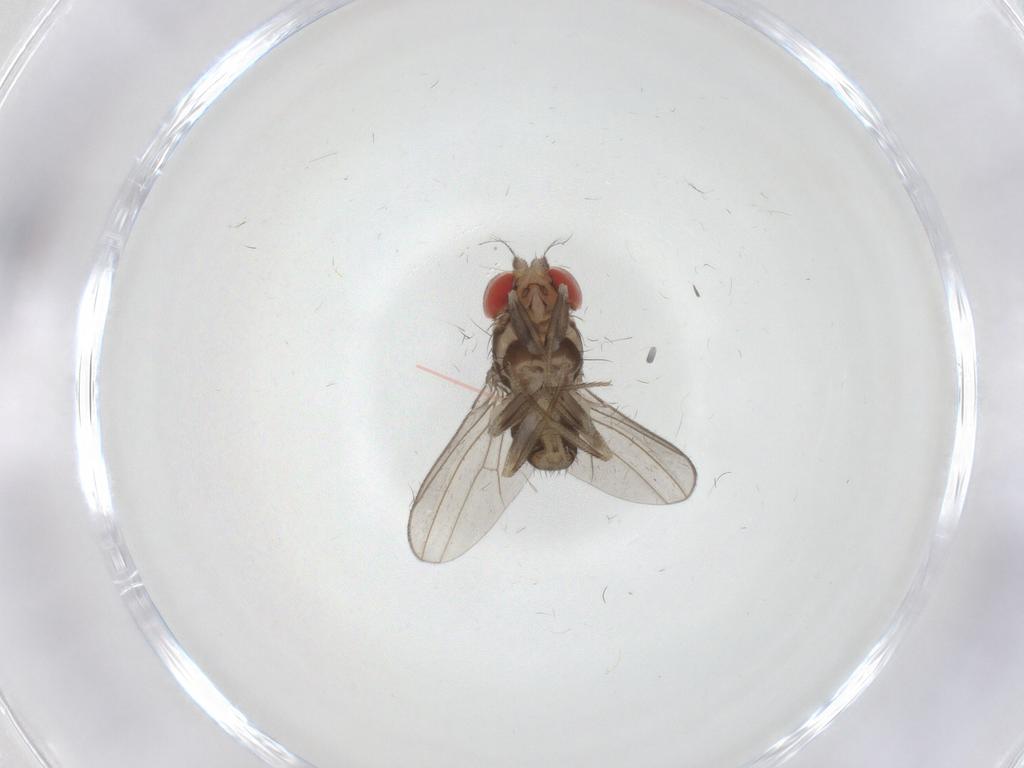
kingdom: Animalia
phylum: Arthropoda
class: Insecta
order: Diptera
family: Drosophilidae
